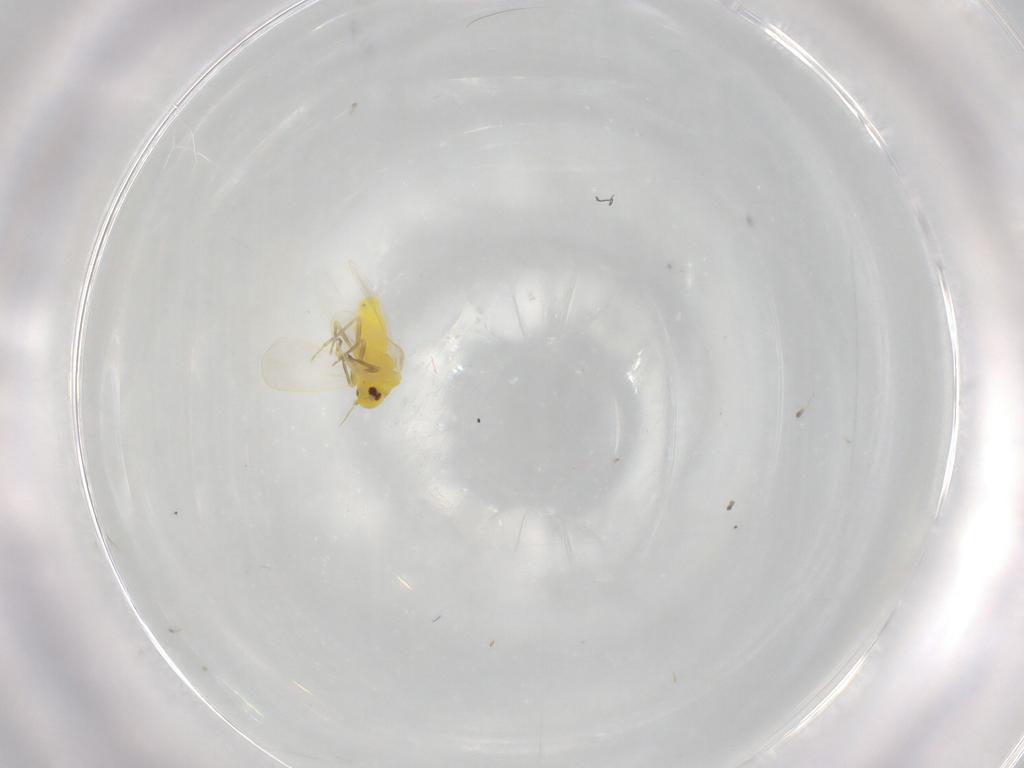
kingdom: Animalia
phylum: Arthropoda
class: Insecta
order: Hemiptera
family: Aleyrodidae
